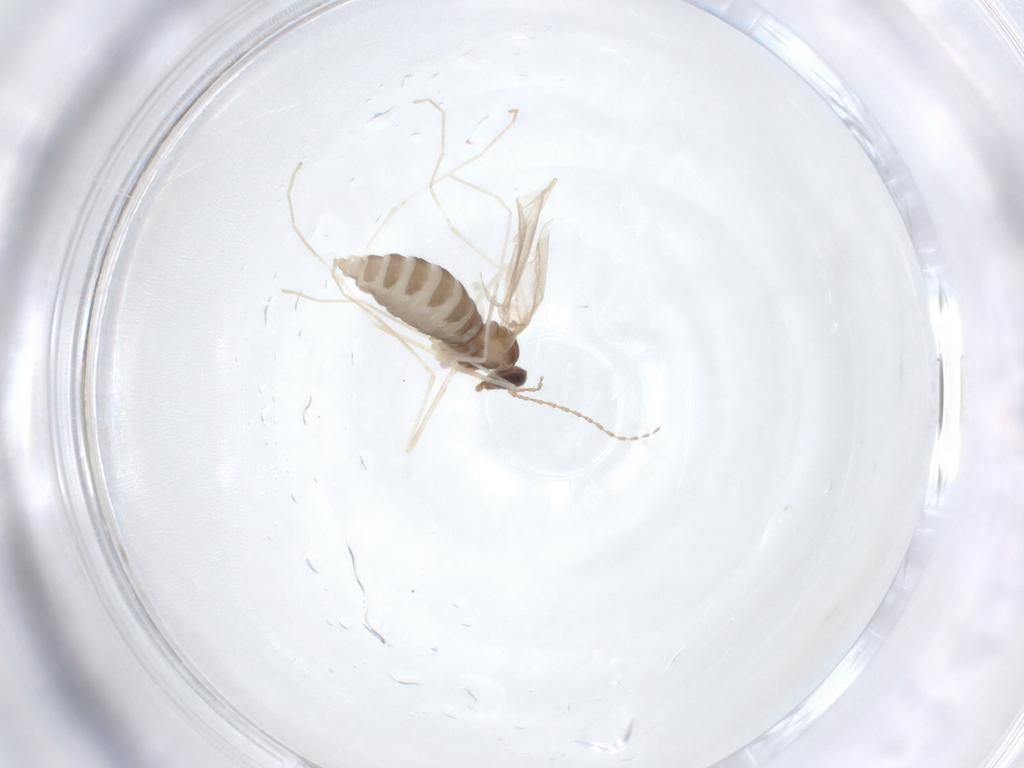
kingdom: Animalia
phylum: Arthropoda
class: Insecta
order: Diptera
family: Cecidomyiidae
